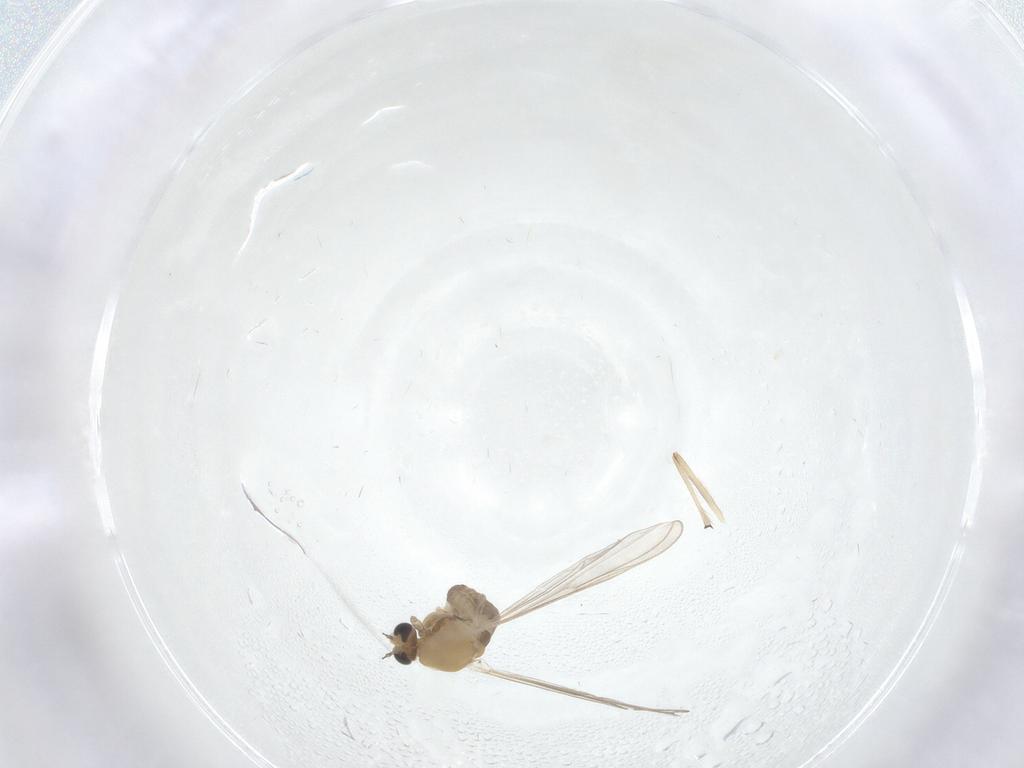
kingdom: Animalia
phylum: Arthropoda
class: Insecta
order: Diptera
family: Chironomidae
